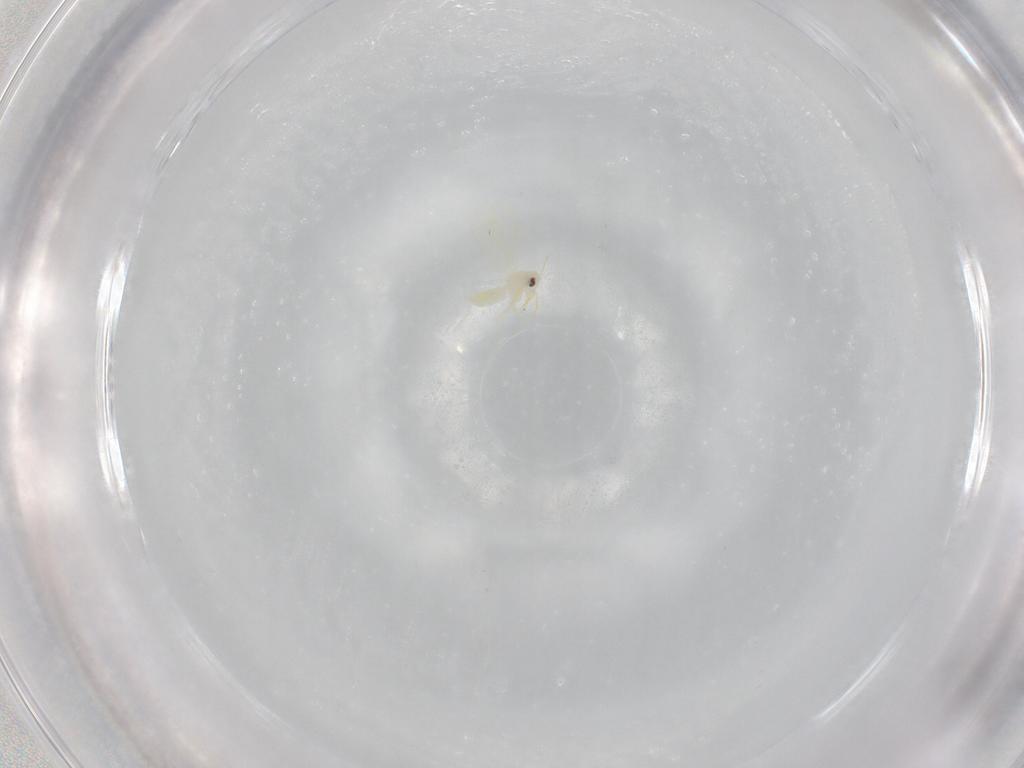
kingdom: Animalia
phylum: Arthropoda
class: Insecta
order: Hemiptera
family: Aleyrodidae
